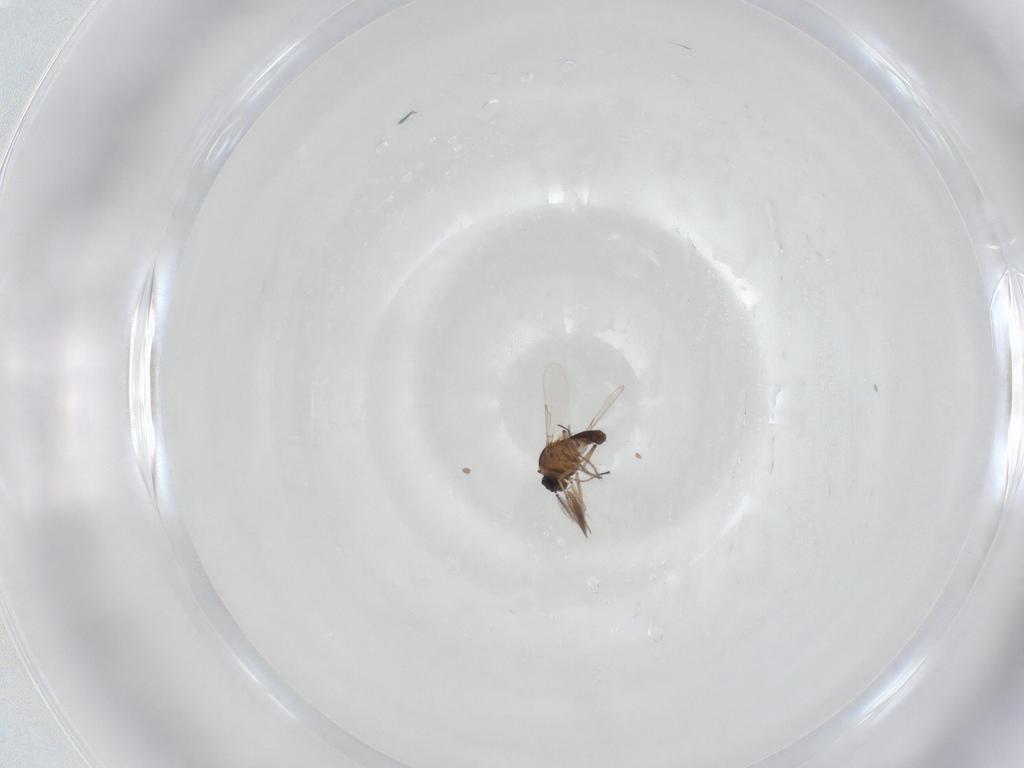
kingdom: Animalia
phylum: Arthropoda
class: Insecta
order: Diptera
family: Ceratopogonidae
